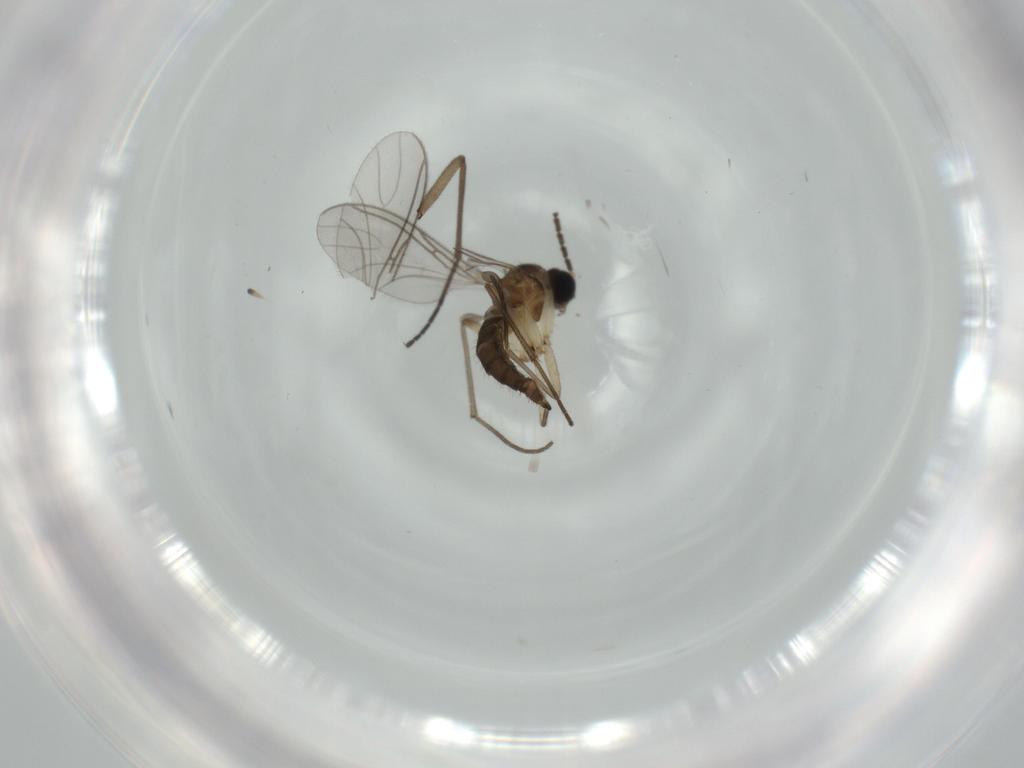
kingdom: Animalia
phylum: Arthropoda
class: Insecta
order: Diptera
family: Sciaridae
